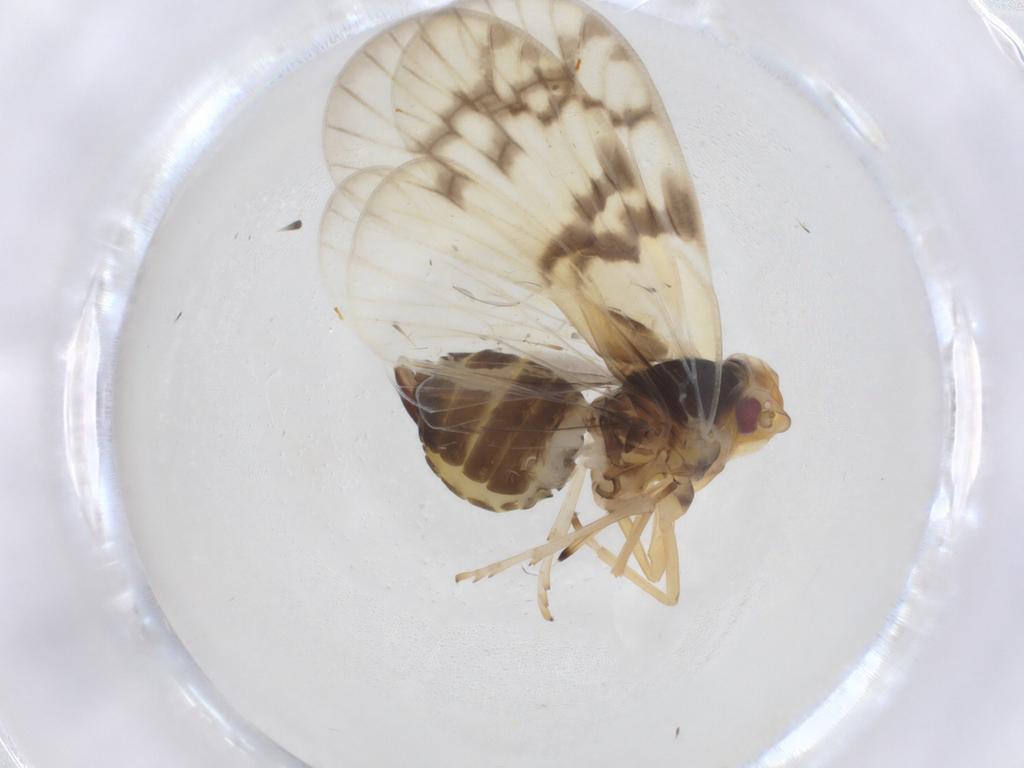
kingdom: Animalia
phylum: Arthropoda
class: Insecta
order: Hemiptera
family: Cixiidae
